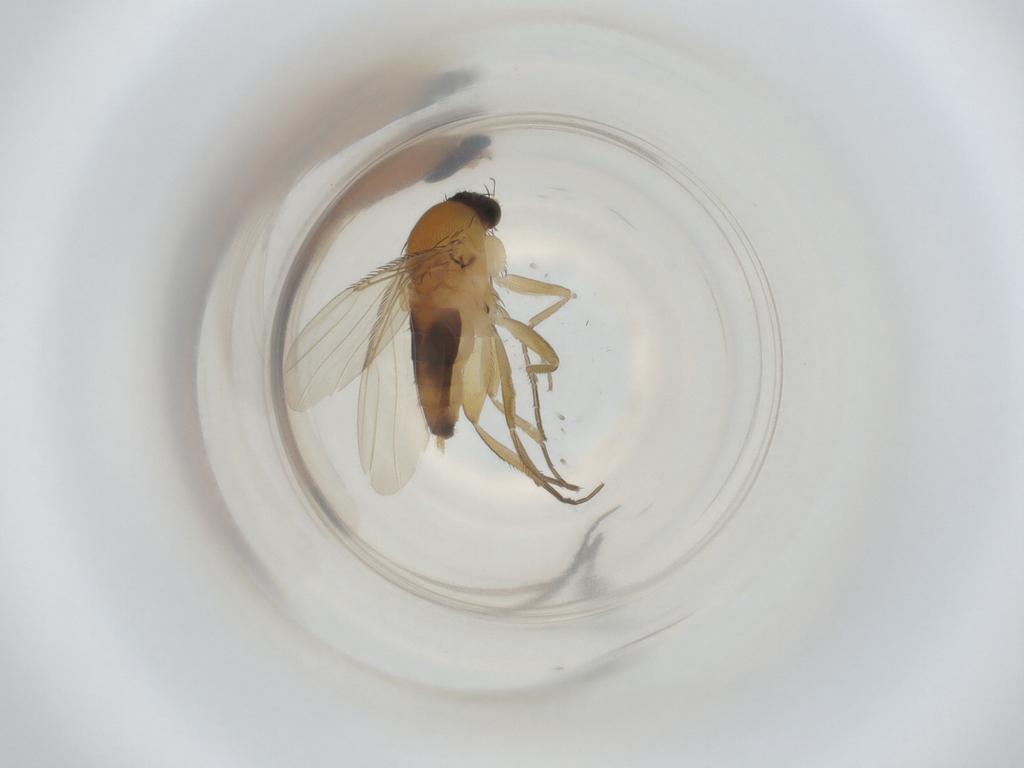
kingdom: Animalia
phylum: Arthropoda
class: Insecta
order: Diptera
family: Phoridae
